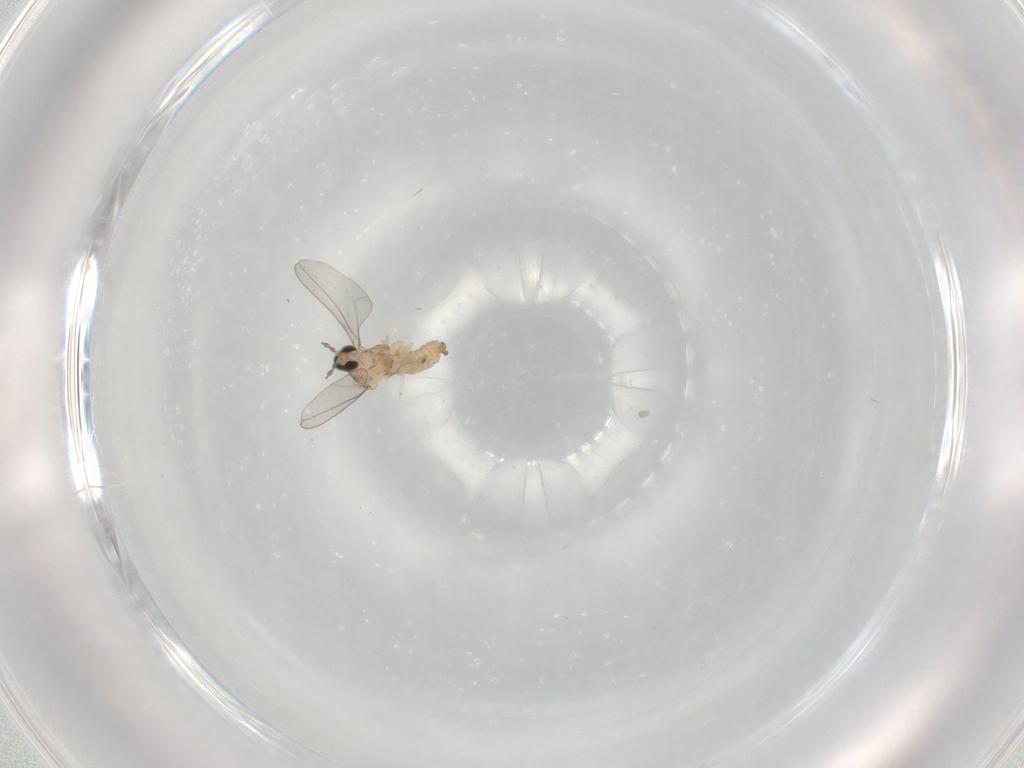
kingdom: Animalia
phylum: Arthropoda
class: Insecta
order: Diptera
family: Cecidomyiidae
